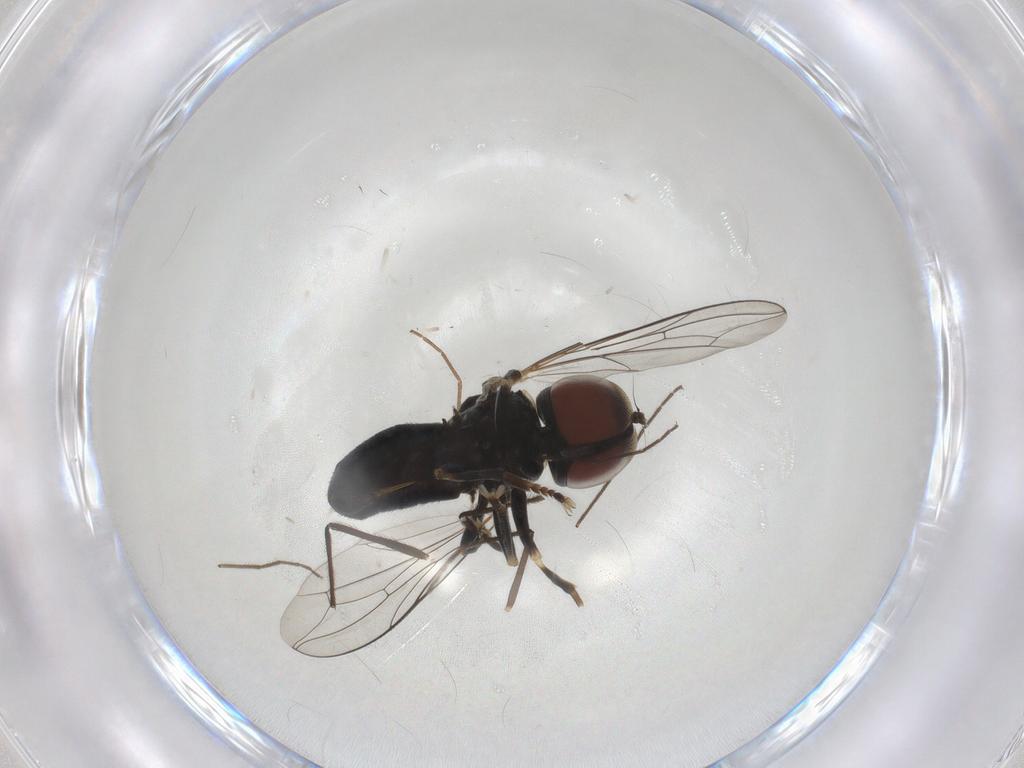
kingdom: Animalia
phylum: Arthropoda
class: Insecta
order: Diptera
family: Pipunculidae
